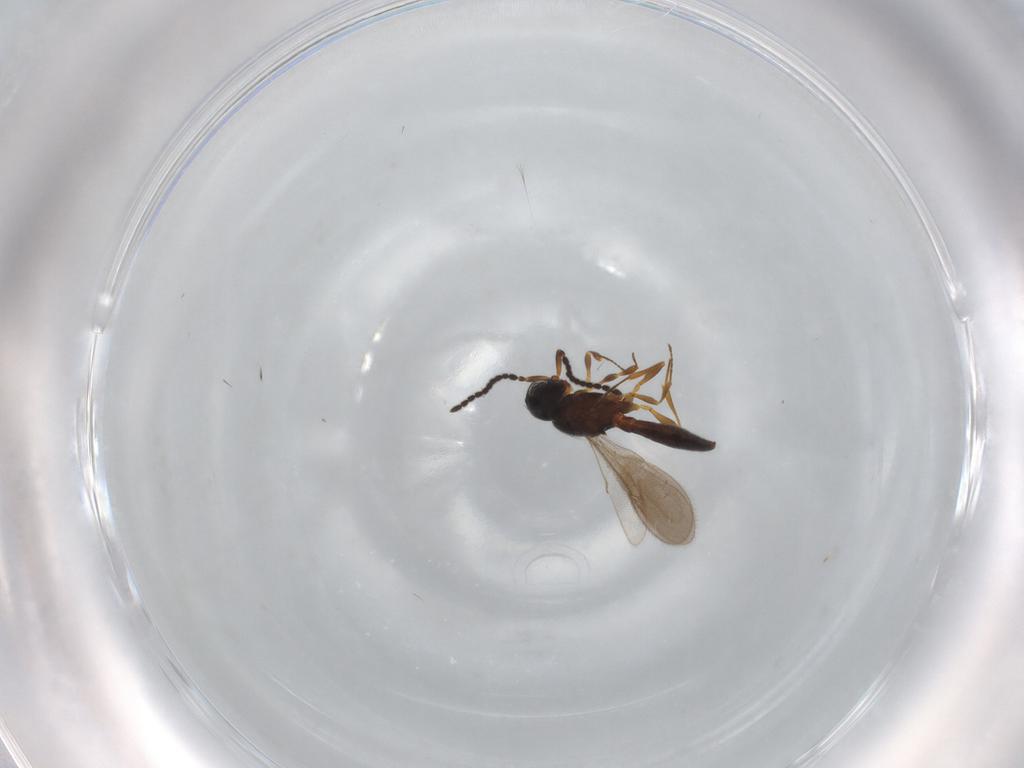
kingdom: Animalia
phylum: Arthropoda
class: Insecta
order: Hymenoptera
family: Scelionidae
